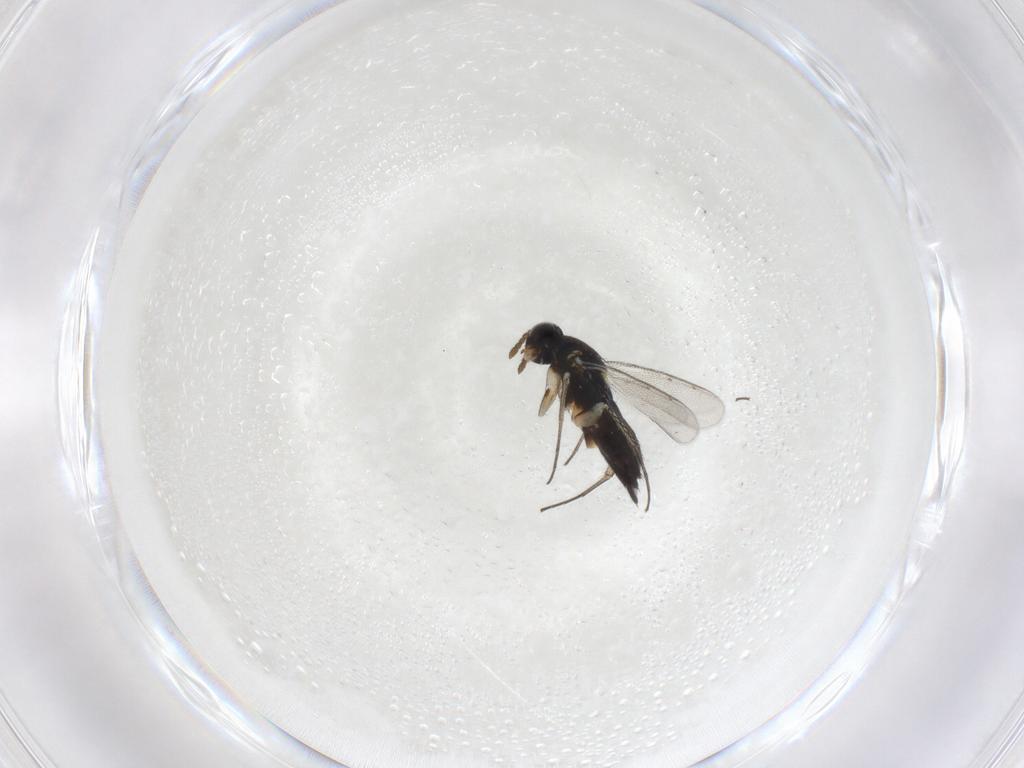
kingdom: Animalia
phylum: Arthropoda
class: Insecta
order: Hymenoptera
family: Eulophidae
